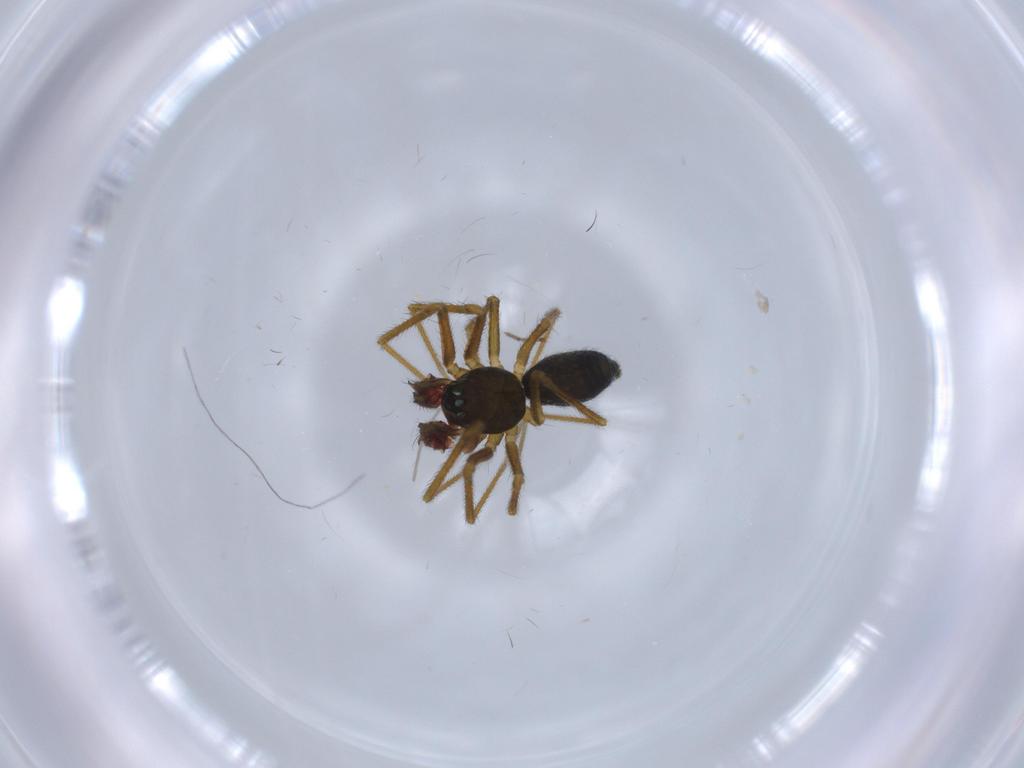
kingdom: Animalia
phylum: Arthropoda
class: Arachnida
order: Araneae
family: Linyphiidae
